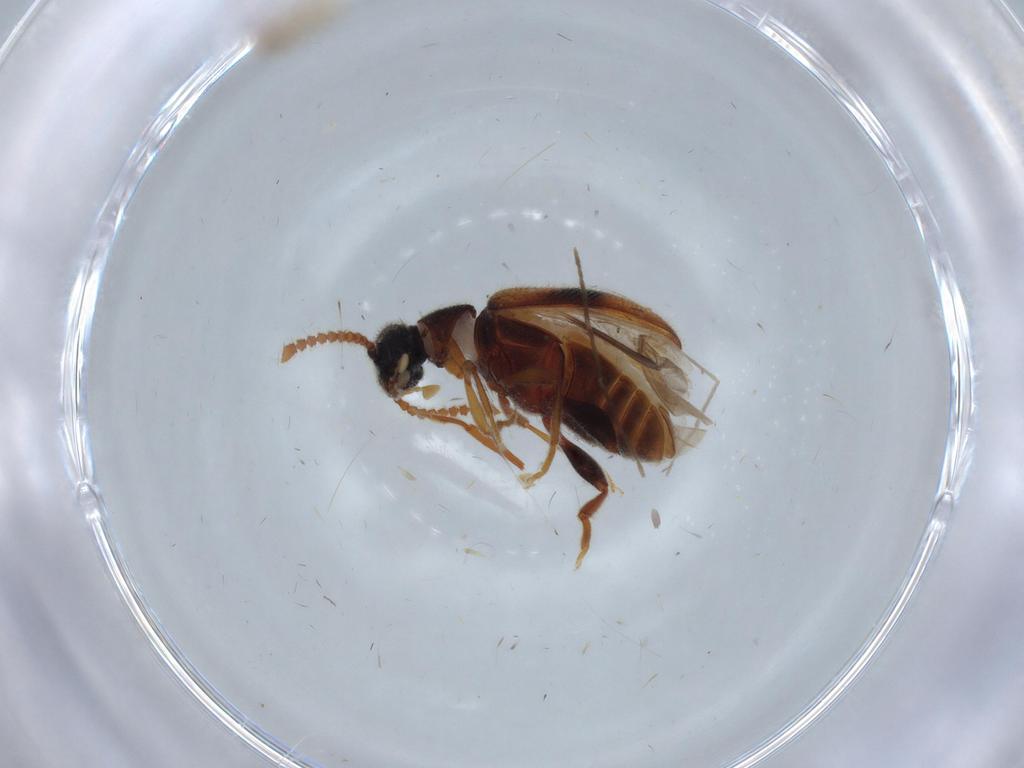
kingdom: Animalia
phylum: Arthropoda
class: Insecta
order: Coleoptera
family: Aderidae
